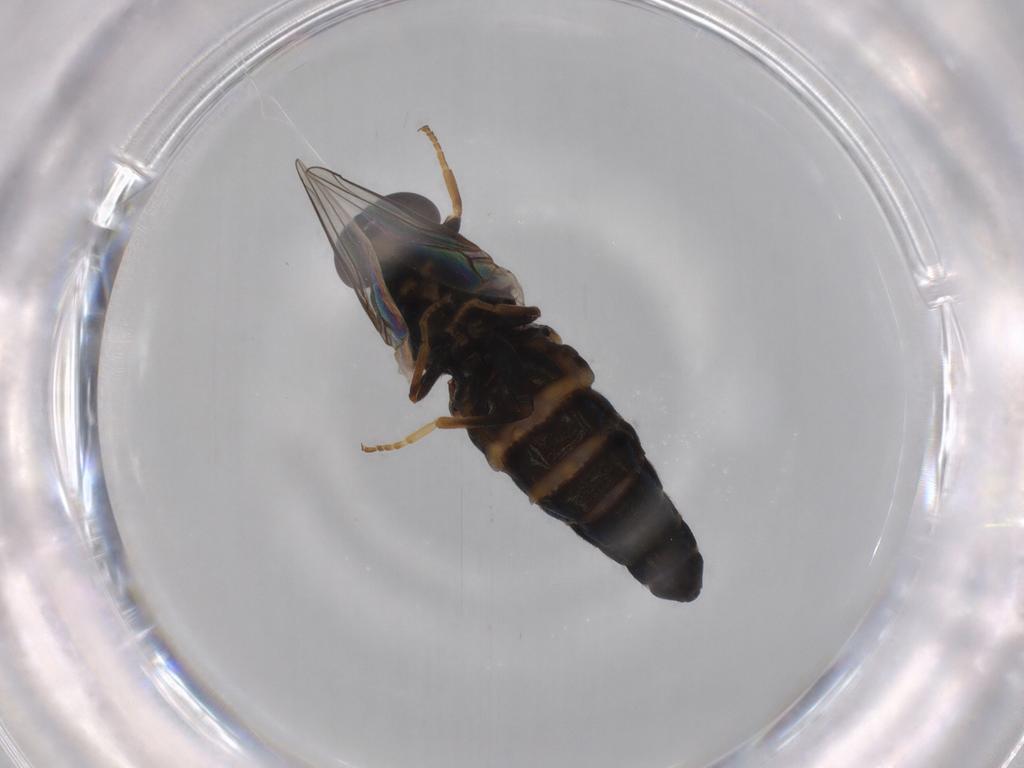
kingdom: Animalia
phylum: Arthropoda
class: Insecta
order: Diptera
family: Scenopinidae
